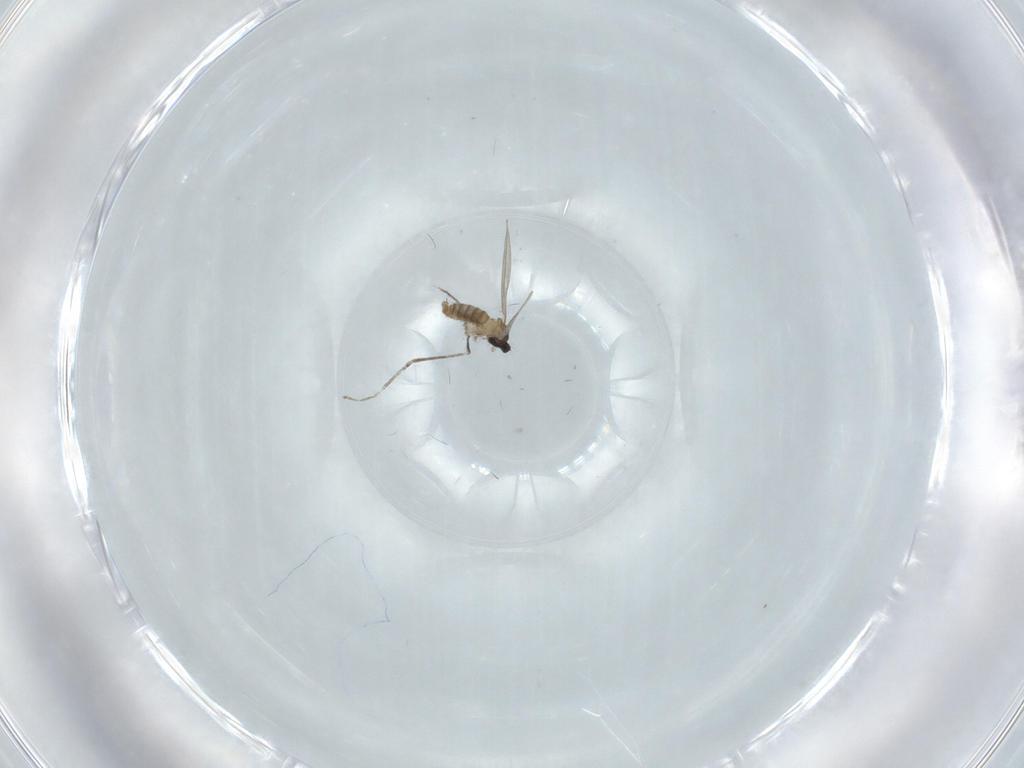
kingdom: Animalia
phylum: Arthropoda
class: Insecta
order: Diptera
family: Cecidomyiidae
